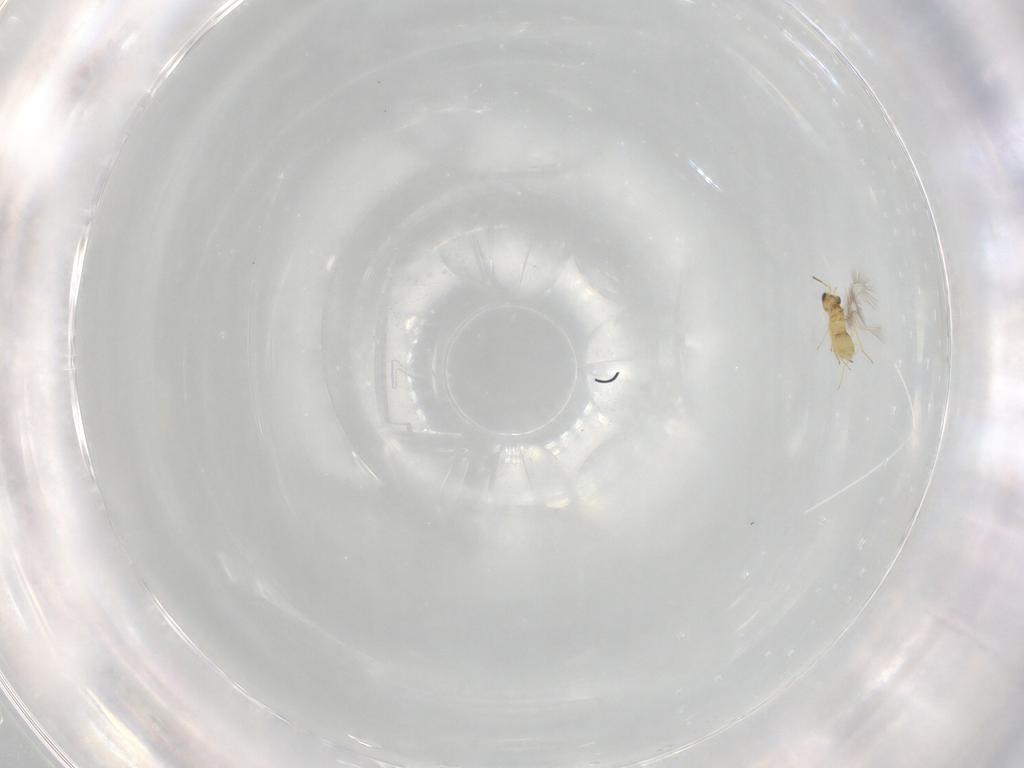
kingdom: Animalia
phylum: Arthropoda
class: Insecta
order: Hymenoptera
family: Mymaridae
